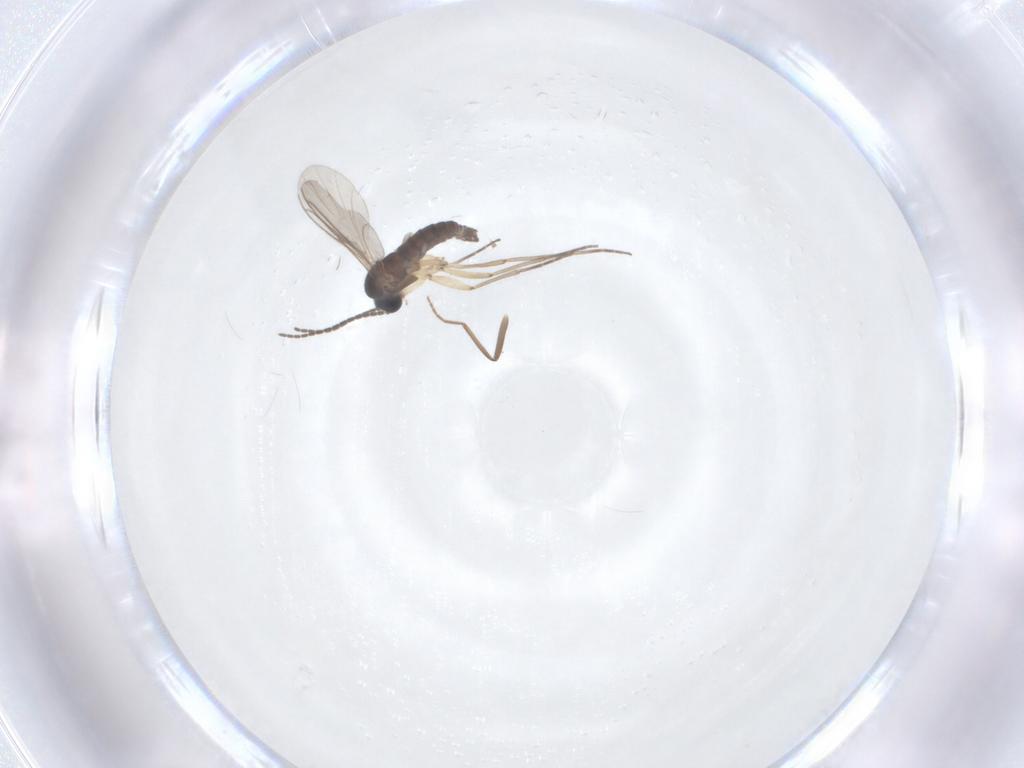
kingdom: Animalia
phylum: Arthropoda
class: Insecta
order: Diptera
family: Sciaridae
